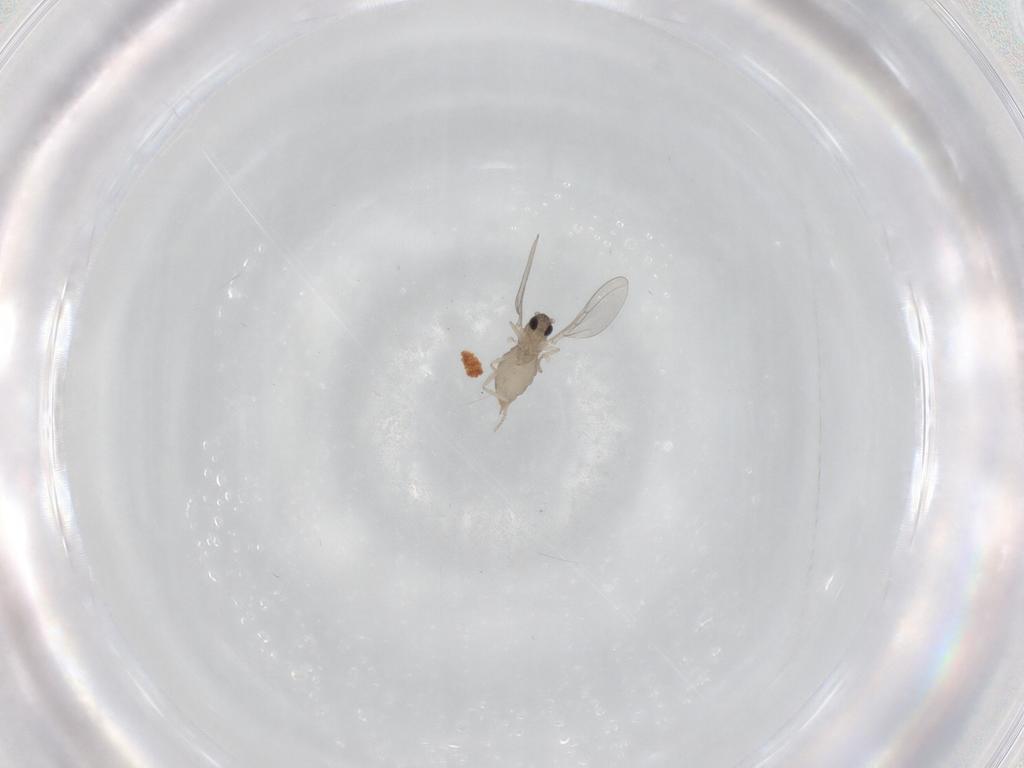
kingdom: Animalia
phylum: Arthropoda
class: Insecta
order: Diptera
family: Cecidomyiidae
